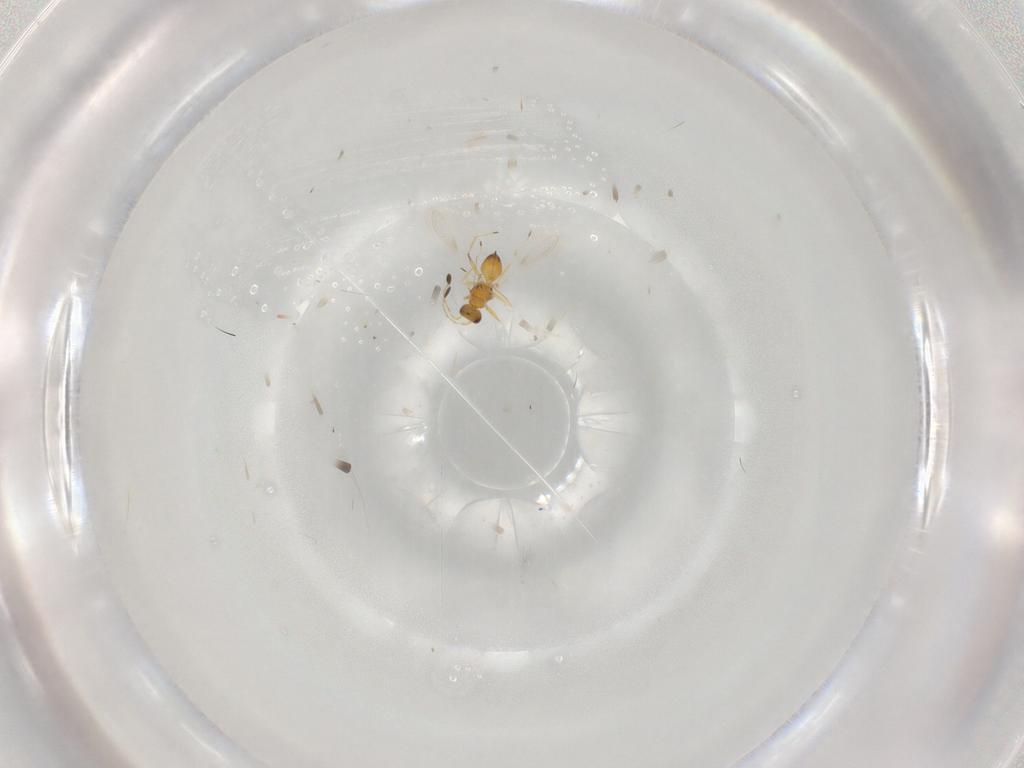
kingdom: Animalia
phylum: Arthropoda
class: Insecta
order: Hymenoptera
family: Mymaridae
